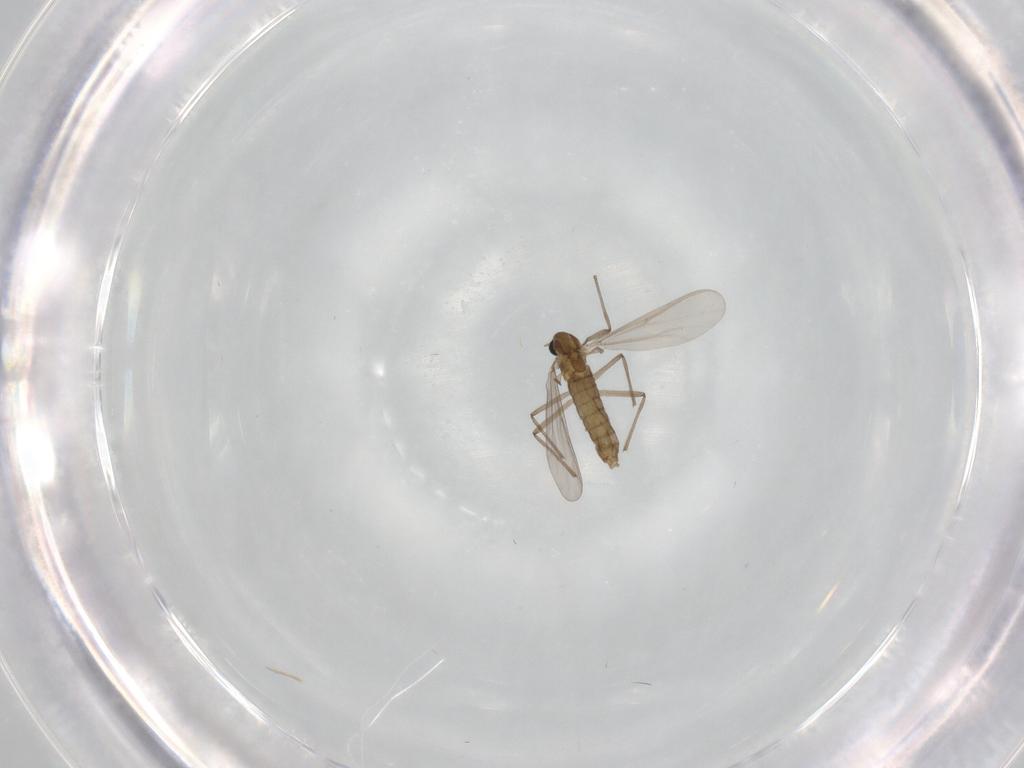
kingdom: Animalia
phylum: Arthropoda
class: Insecta
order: Diptera
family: Chironomidae
